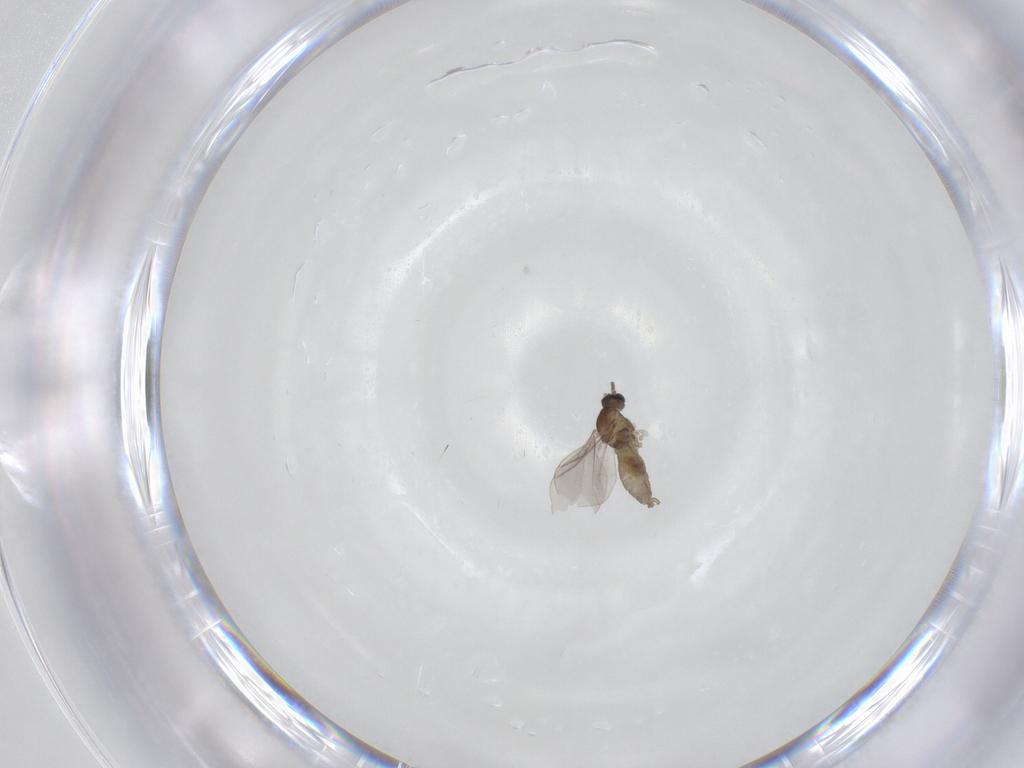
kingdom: Animalia
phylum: Arthropoda
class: Insecta
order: Diptera
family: Cecidomyiidae
